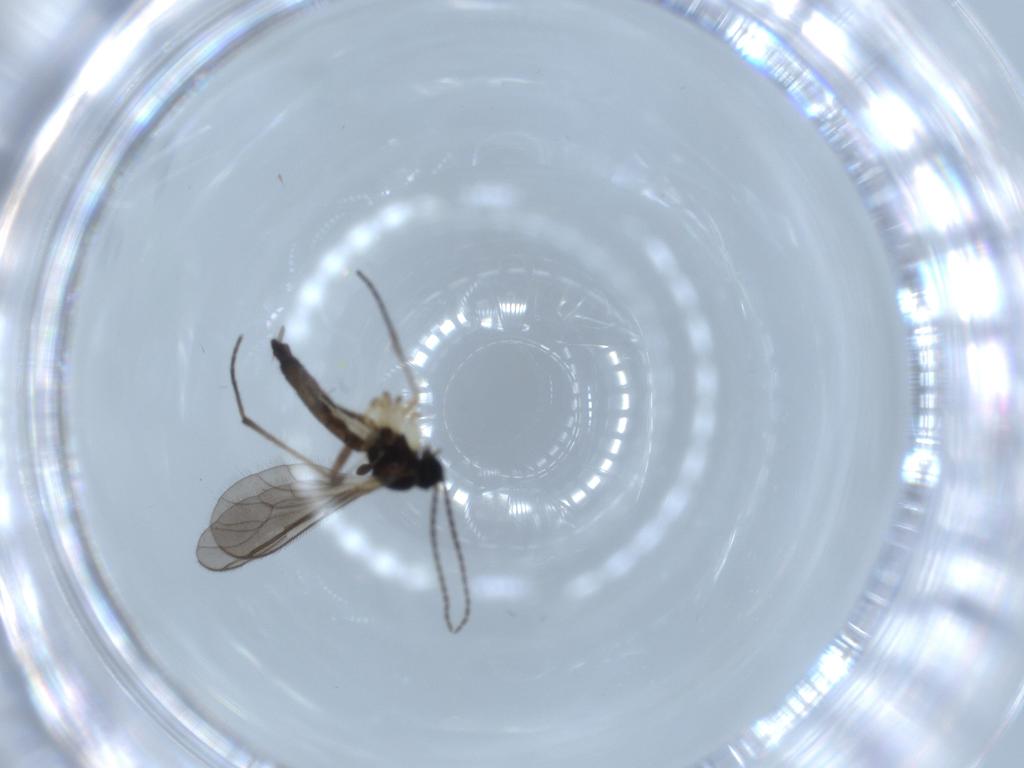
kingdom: Animalia
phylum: Arthropoda
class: Insecta
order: Diptera
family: Sciaridae
